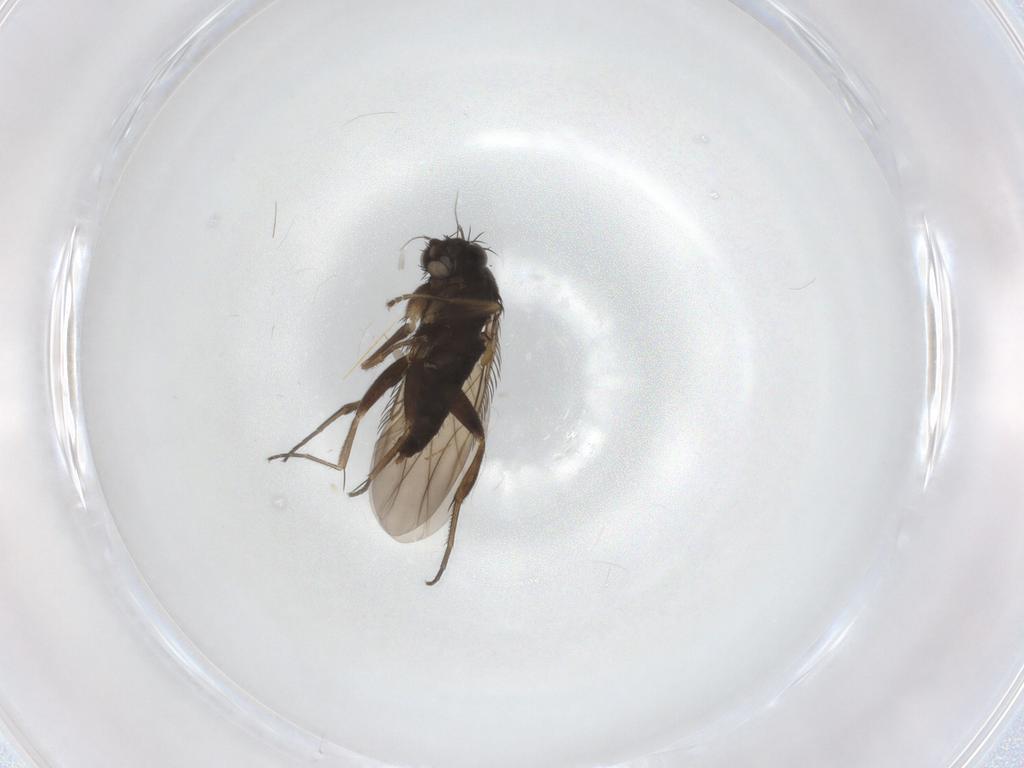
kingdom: Animalia
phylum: Arthropoda
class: Insecta
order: Diptera
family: Phoridae
